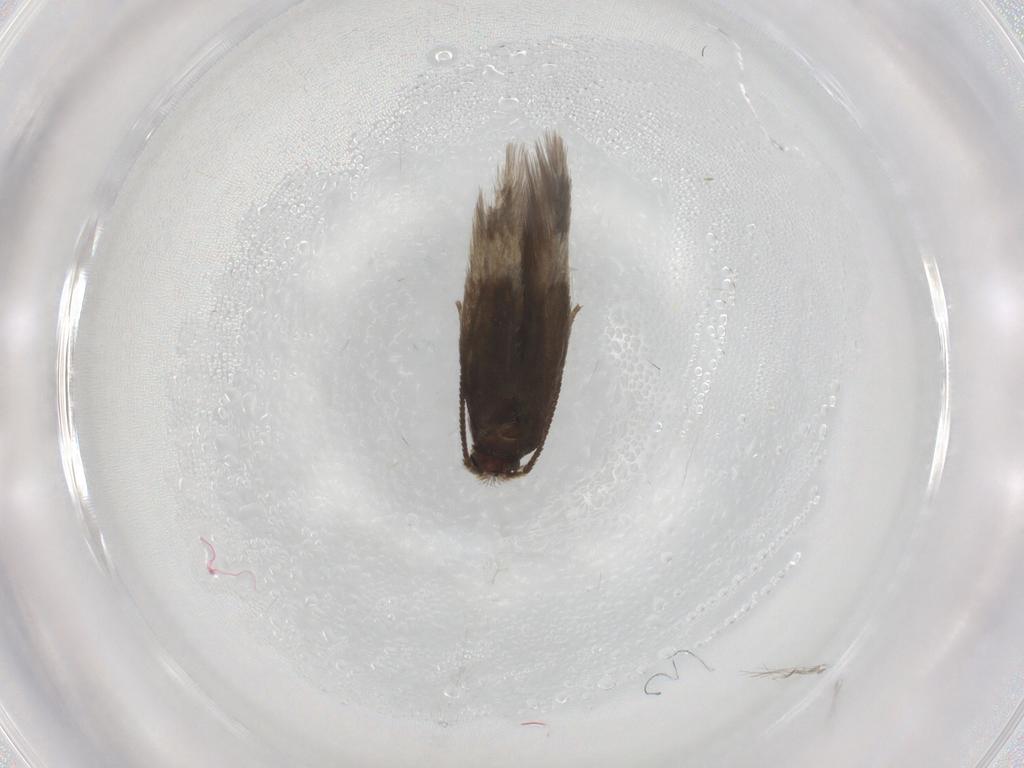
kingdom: Animalia
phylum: Arthropoda
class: Insecta
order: Lepidoptera
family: Nepticulidae
